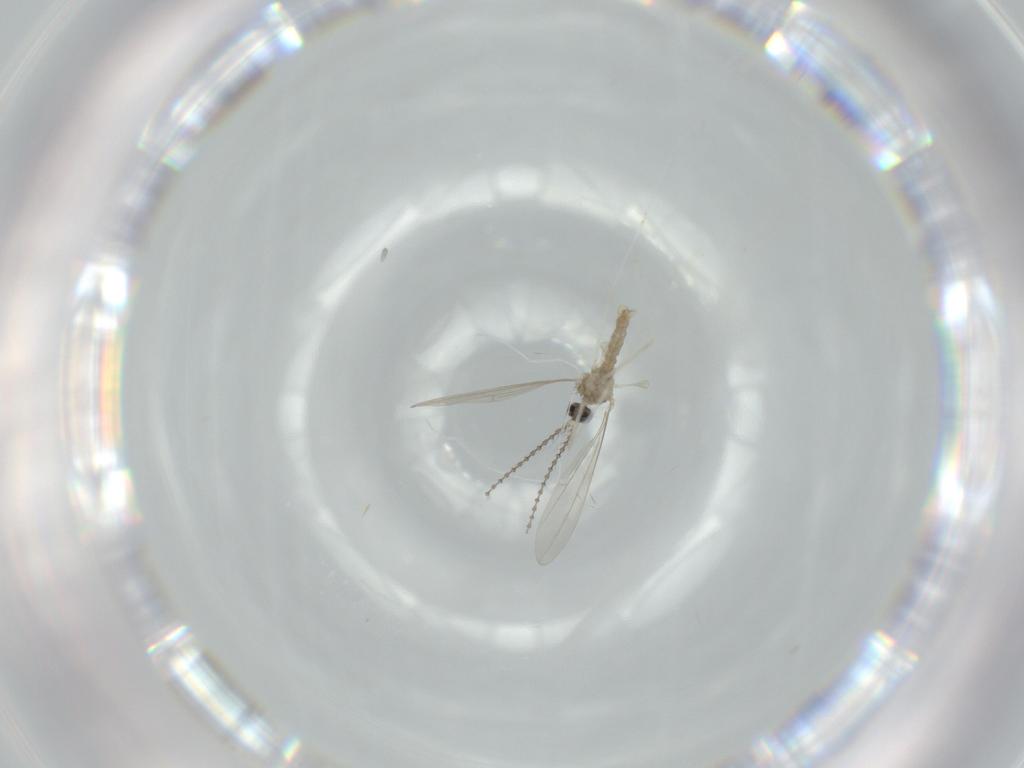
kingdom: Animalia
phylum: Arthropoda
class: Insecta
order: Diptera
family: Cecidomyiidae
